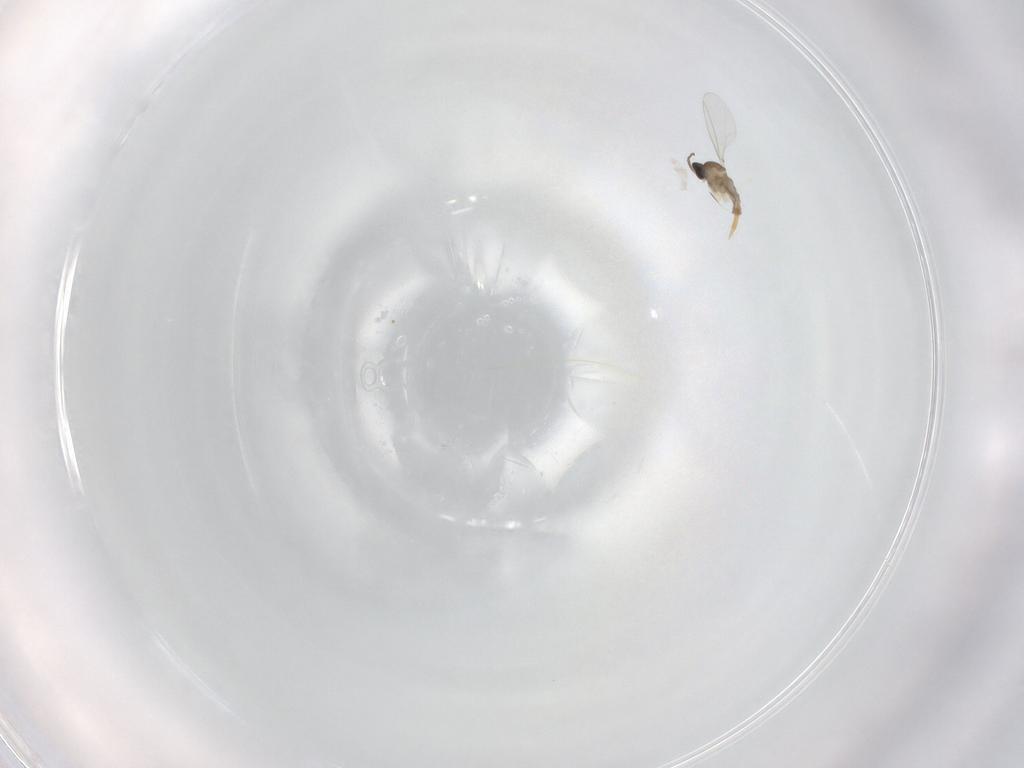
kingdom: Animalia
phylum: Arthropoda
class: Insecta
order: Diptera
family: Cecidomyiidae
